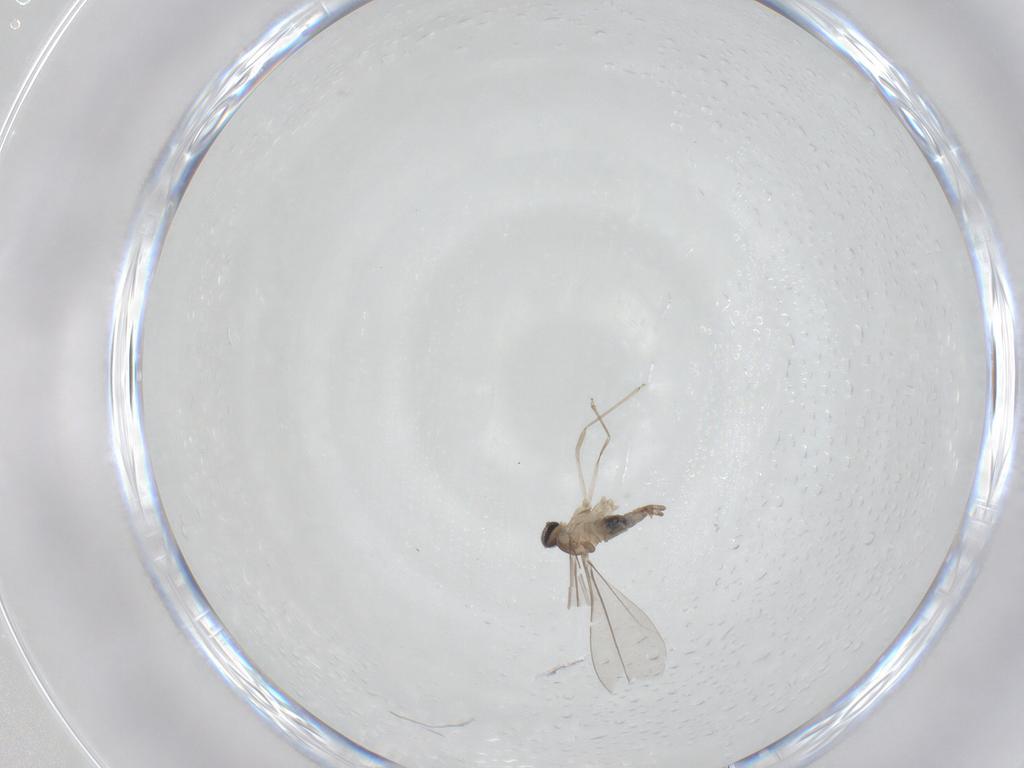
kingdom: Animalia
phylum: Arthropoda
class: Insecta
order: Diptera
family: Cecidomyiidae
